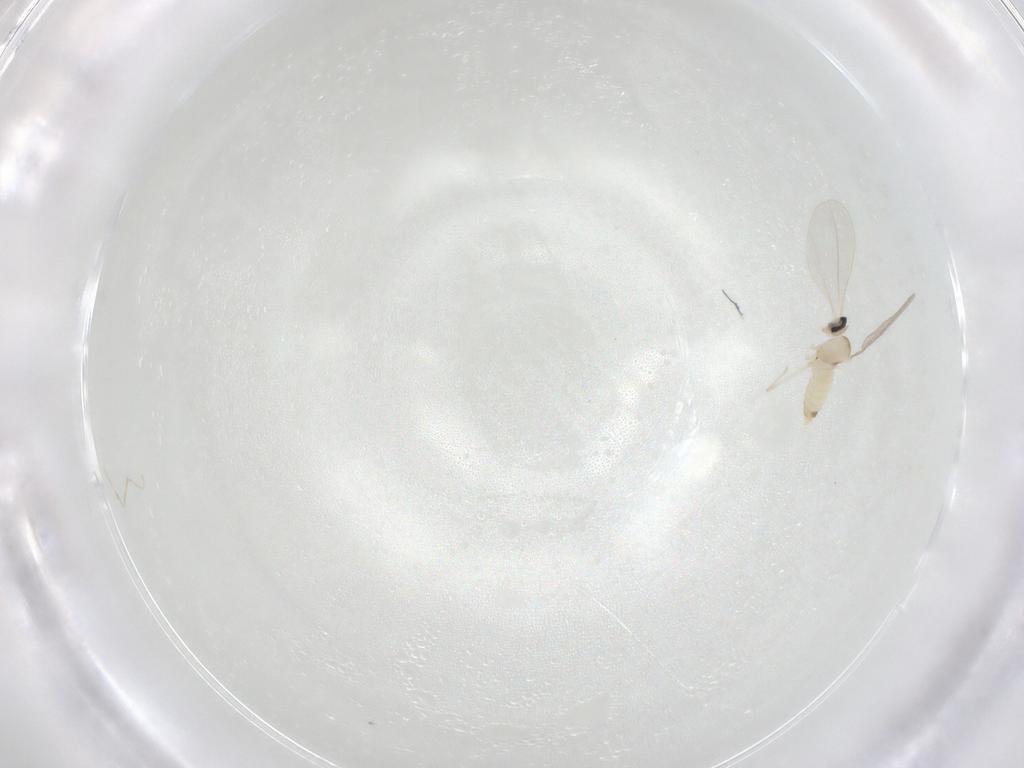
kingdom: Animalia
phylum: Arthropoda
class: Insecta
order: Diptera
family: Cecidomyiidae
